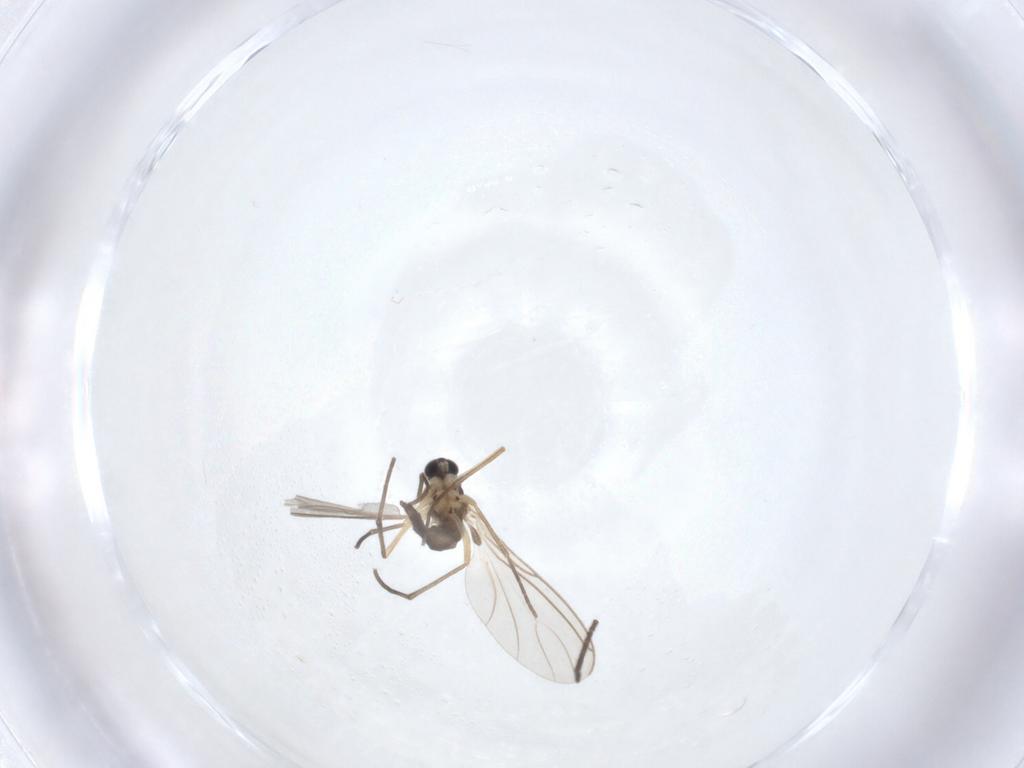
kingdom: Animalia
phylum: Arthropoda
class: Insecta
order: Diptera
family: Sciaridae
